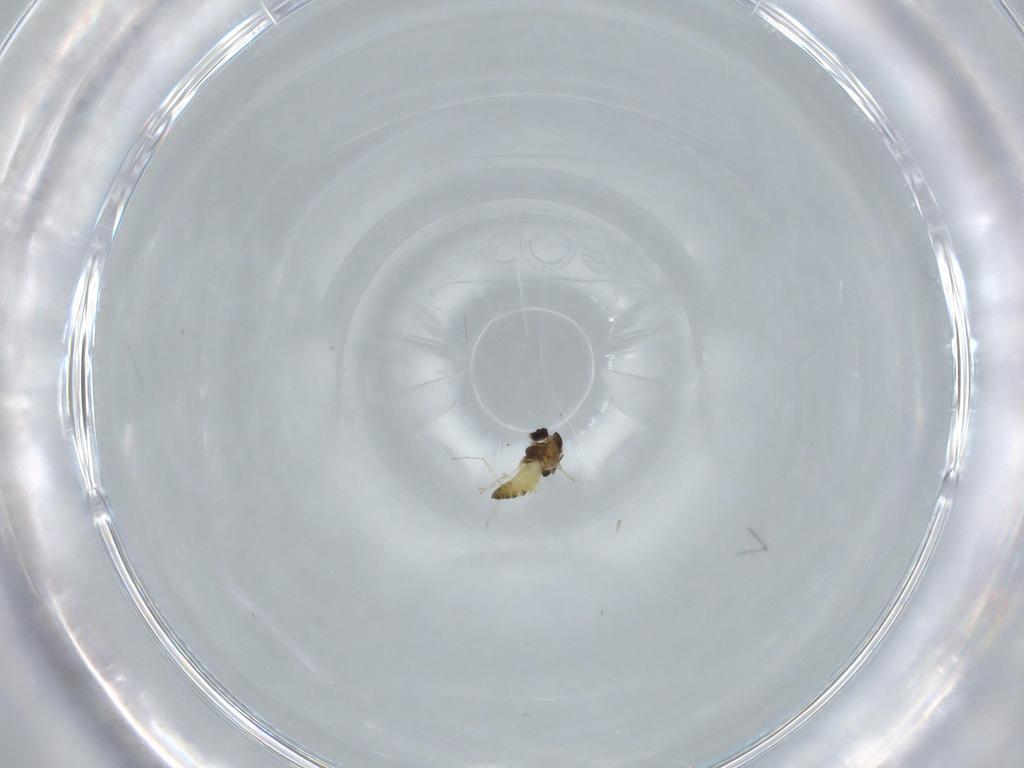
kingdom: Animalia
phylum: Arthropoda
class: Insecta
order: Diptera
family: Chironomidae
